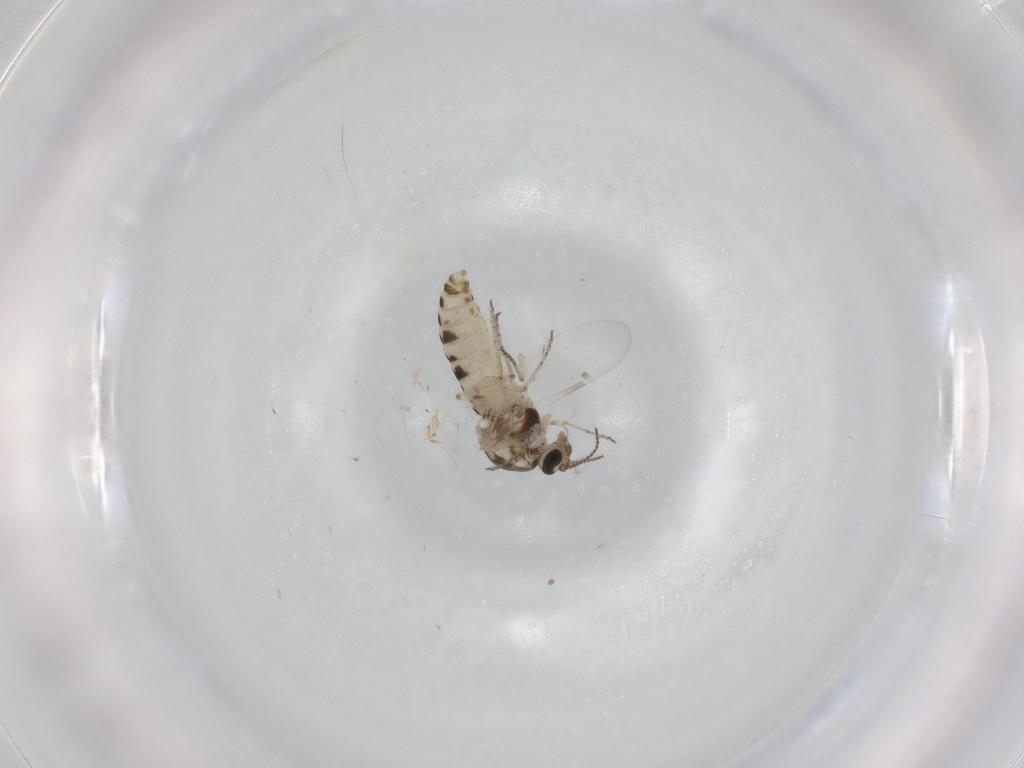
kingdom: Animalia
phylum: Arthropoda
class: Insecta
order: Diptera
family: Ceratopogonidae
